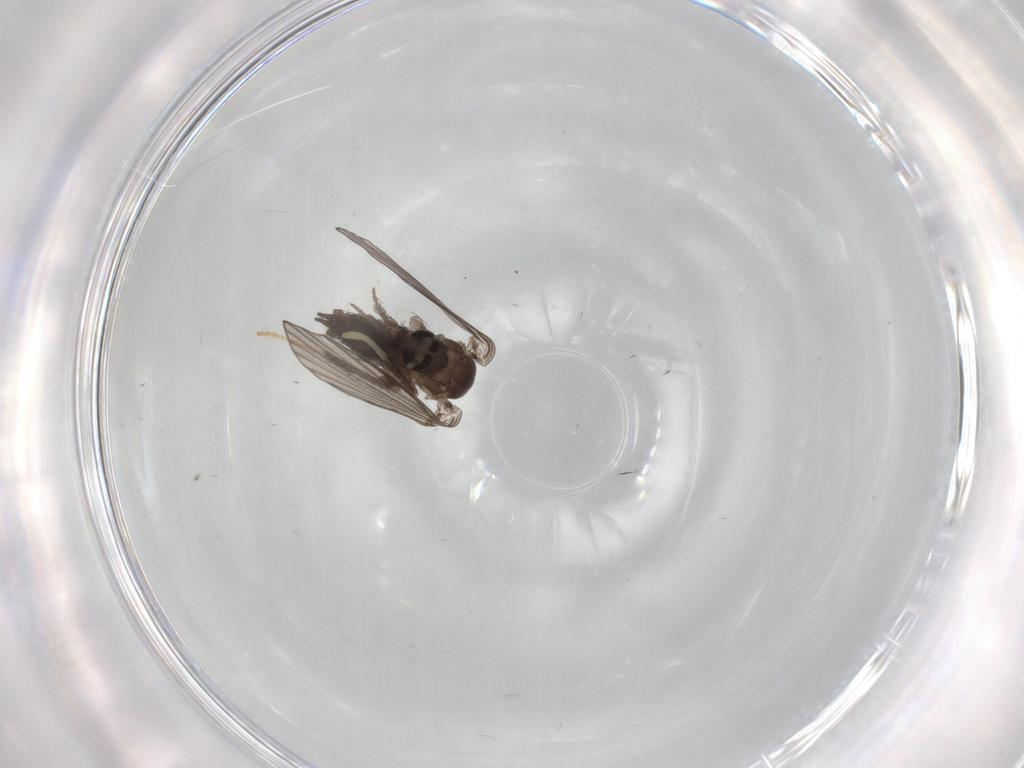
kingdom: Animalia
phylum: Arthropoda
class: Insecta
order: Diptera
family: Psychodidae
